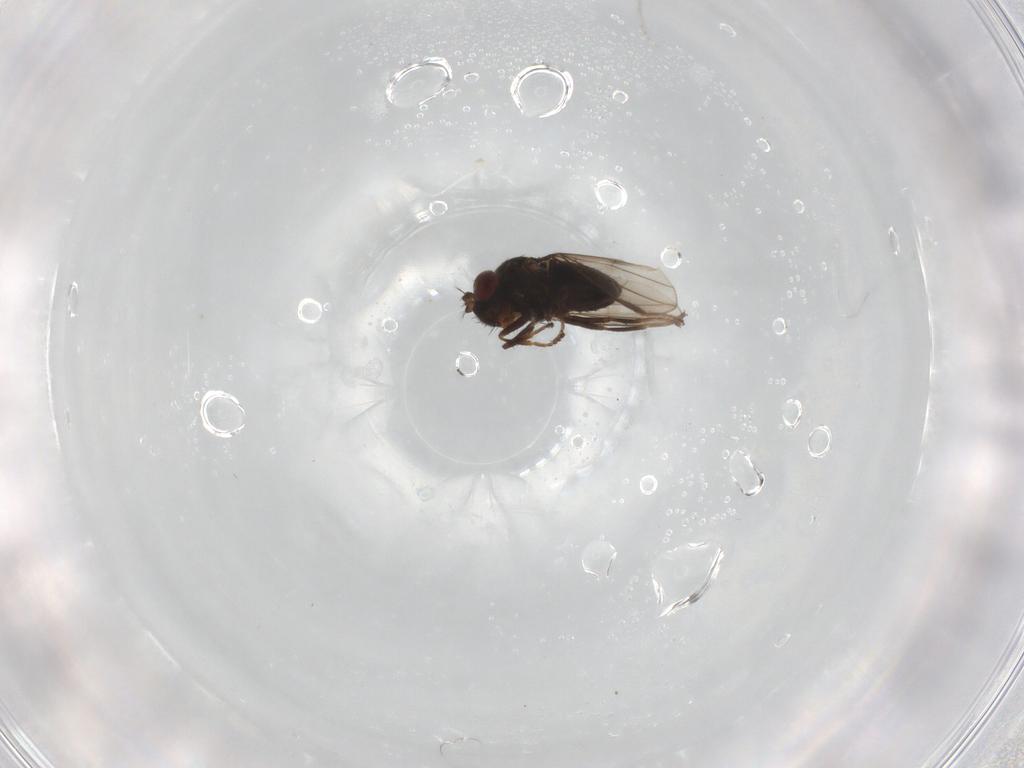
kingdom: Animalia
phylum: Arthropoda
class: Insecta
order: Diptera
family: Ephydridae
